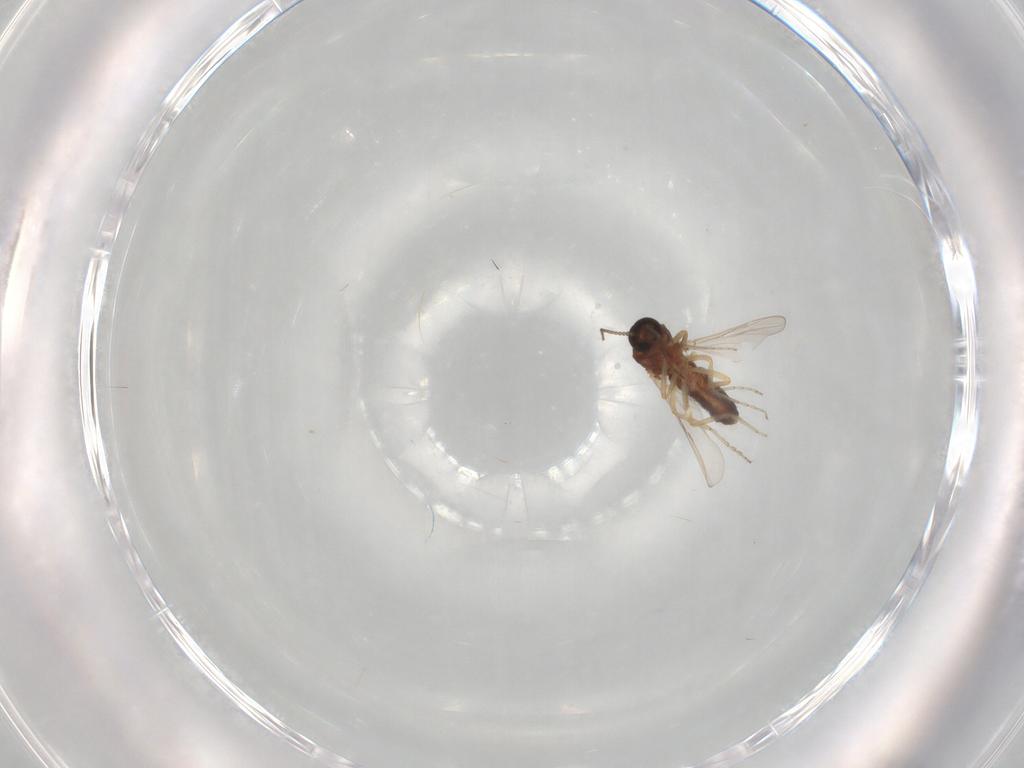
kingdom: Animalia
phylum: Arthropoda
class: Insecta
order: Diptera
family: Ceratopogonidae
